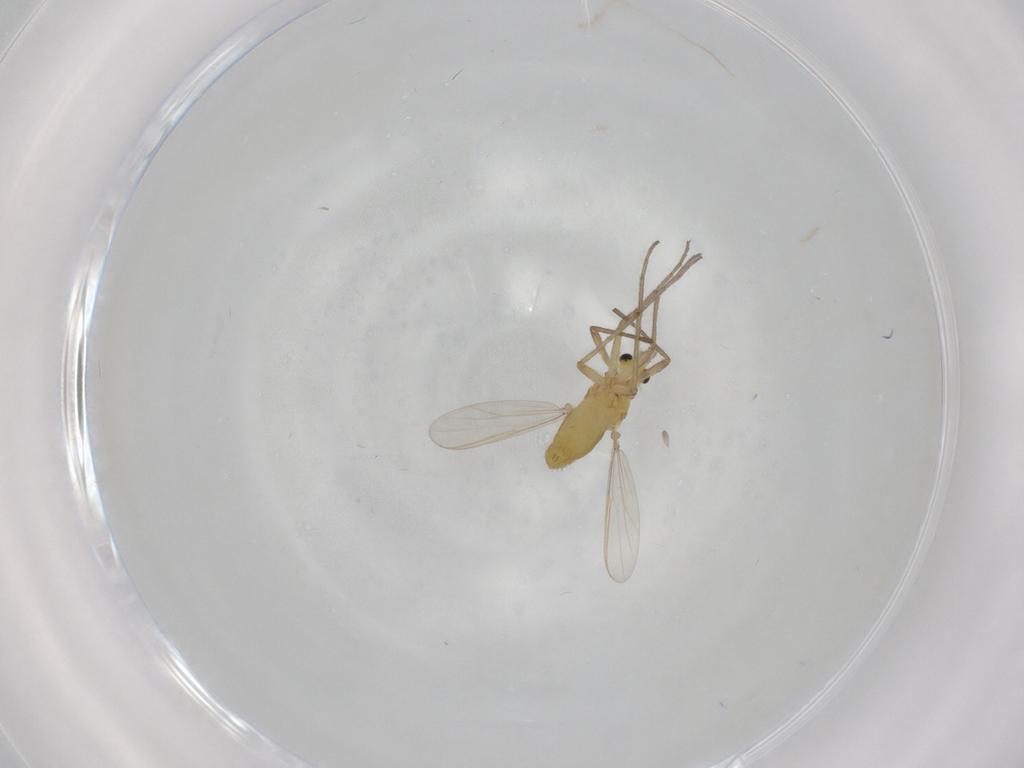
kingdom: Animalia
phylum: Arthropoda
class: Insecta
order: Diptera
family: Chironomidae
